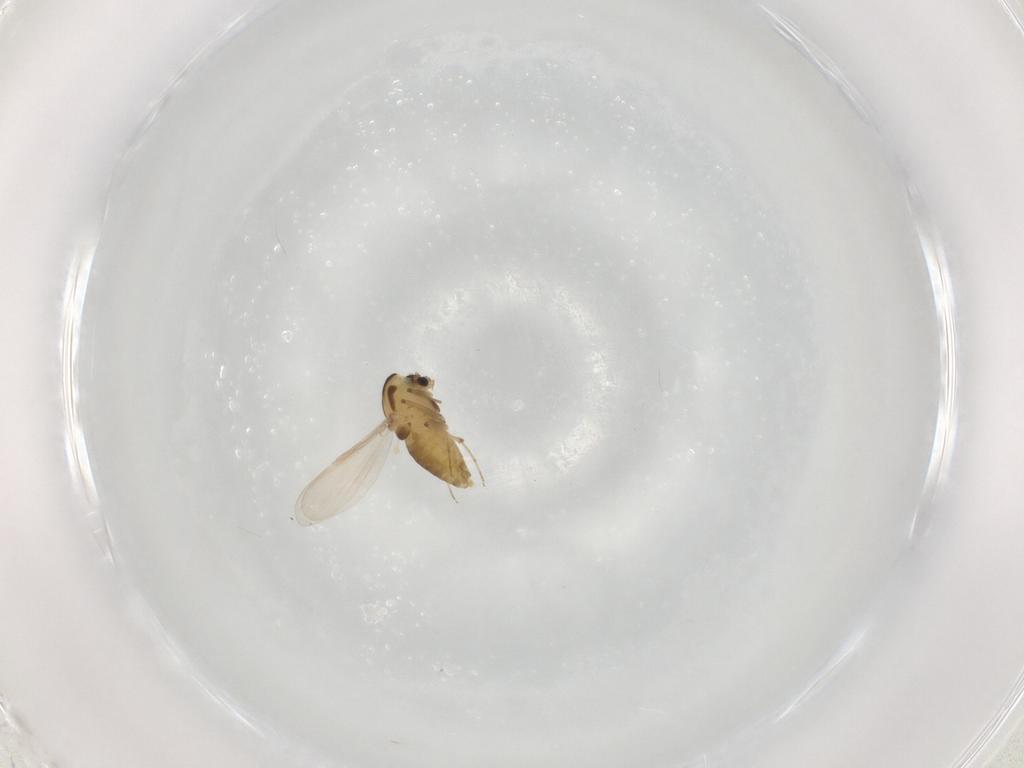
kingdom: Animalia
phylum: Arthropoda
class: Insecta
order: Diptera
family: Chironomidae
